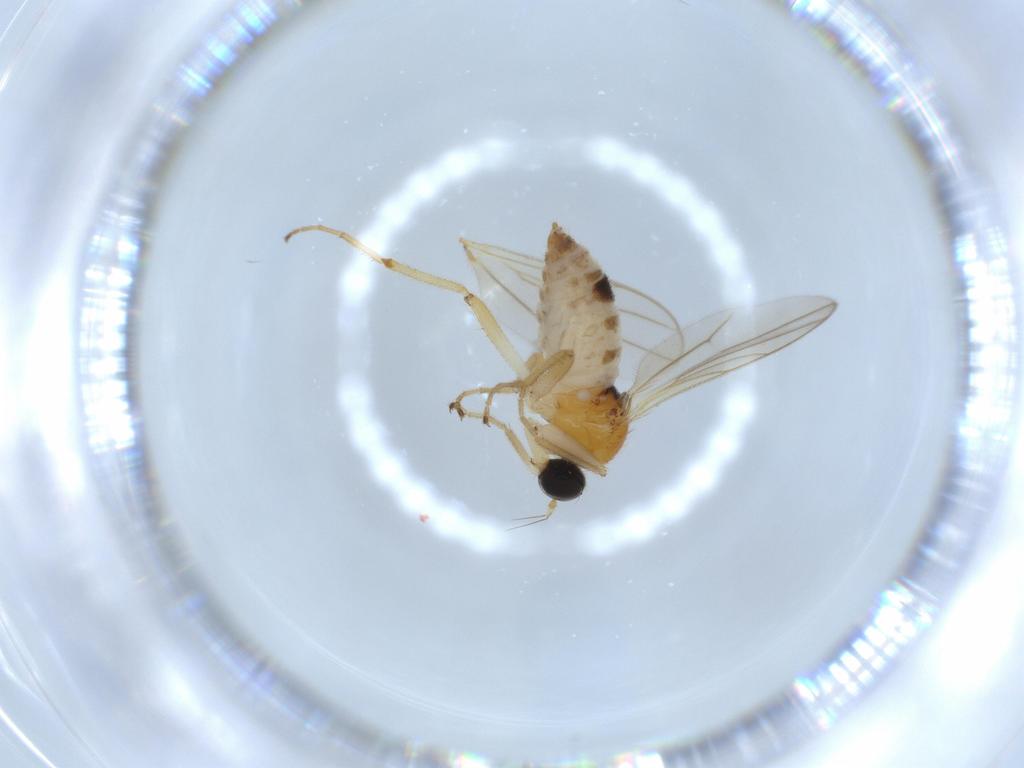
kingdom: Animalia
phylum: Arthropoda
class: Insecta
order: Diptera
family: Hybotidae
